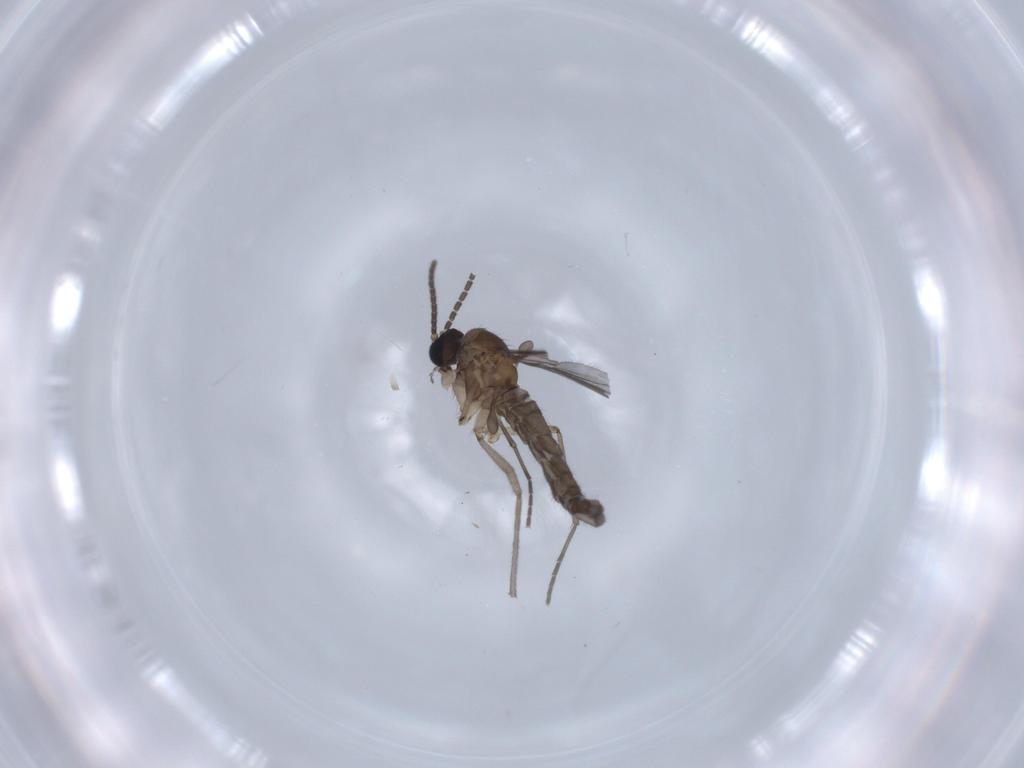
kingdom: Animalia
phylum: Arthropoda
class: Insecta
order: Diptera
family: Sciaridae
